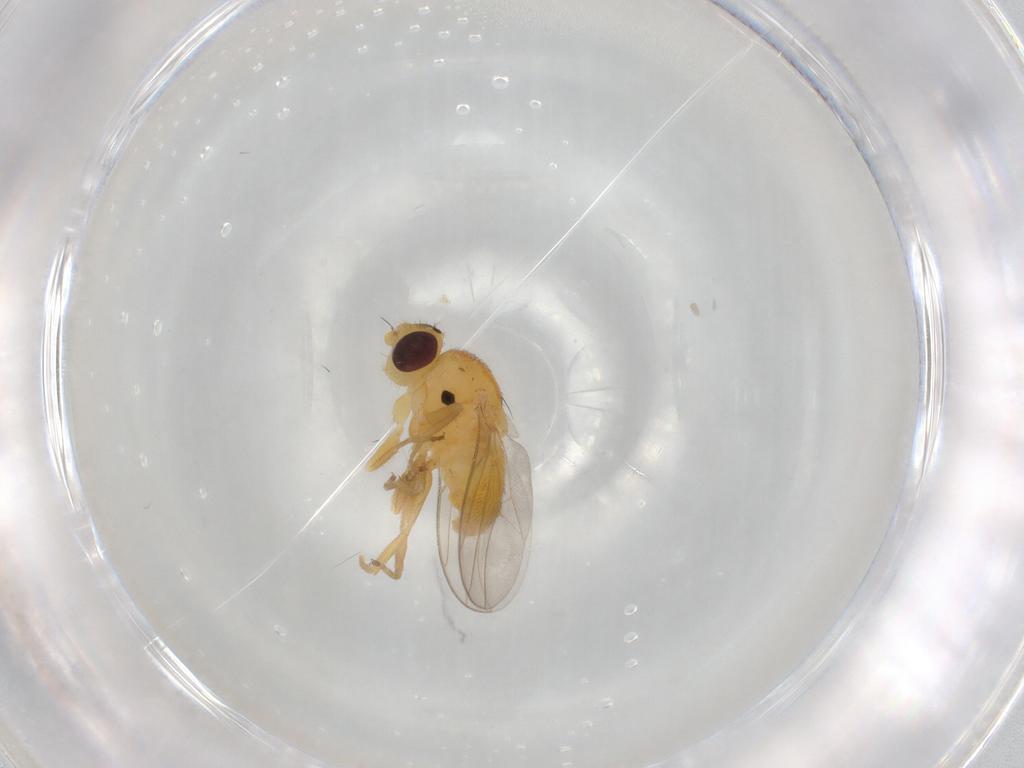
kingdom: Animalia
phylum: Arthropoda
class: Insecta
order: Diptera
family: Chloropidae
